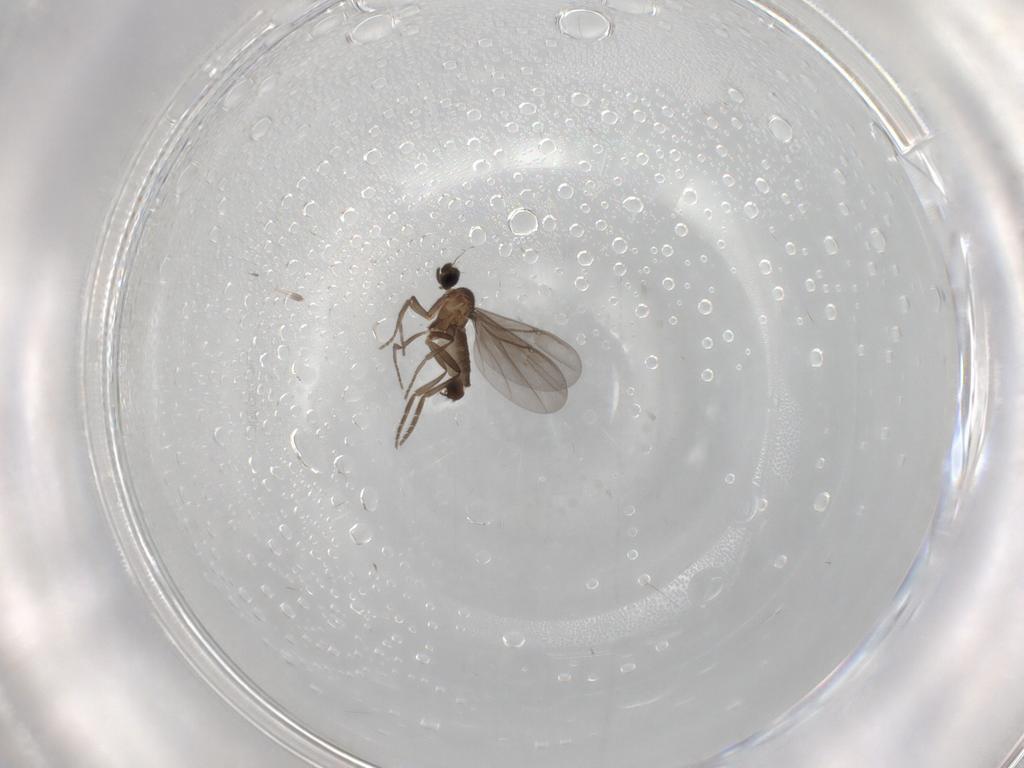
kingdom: Animalia
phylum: Arthropoda
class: Insecta
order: Diptera
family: Phoridae
